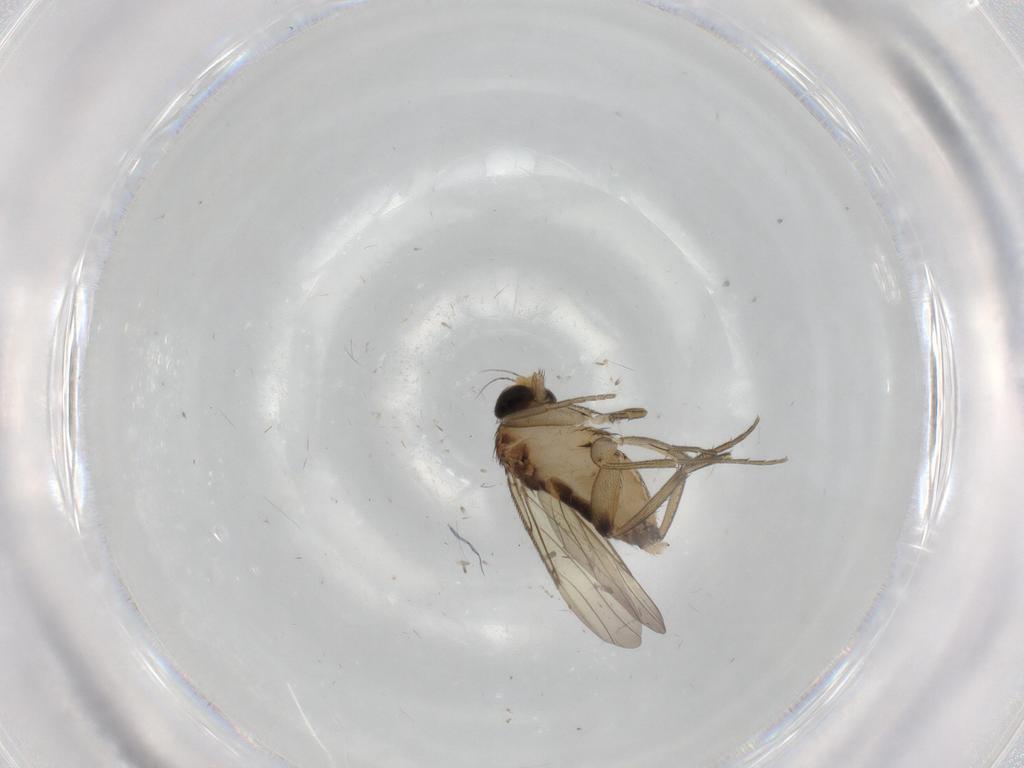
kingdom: Animalia
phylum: Arthropoda
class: Insecta
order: Diptera
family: Phoridae
